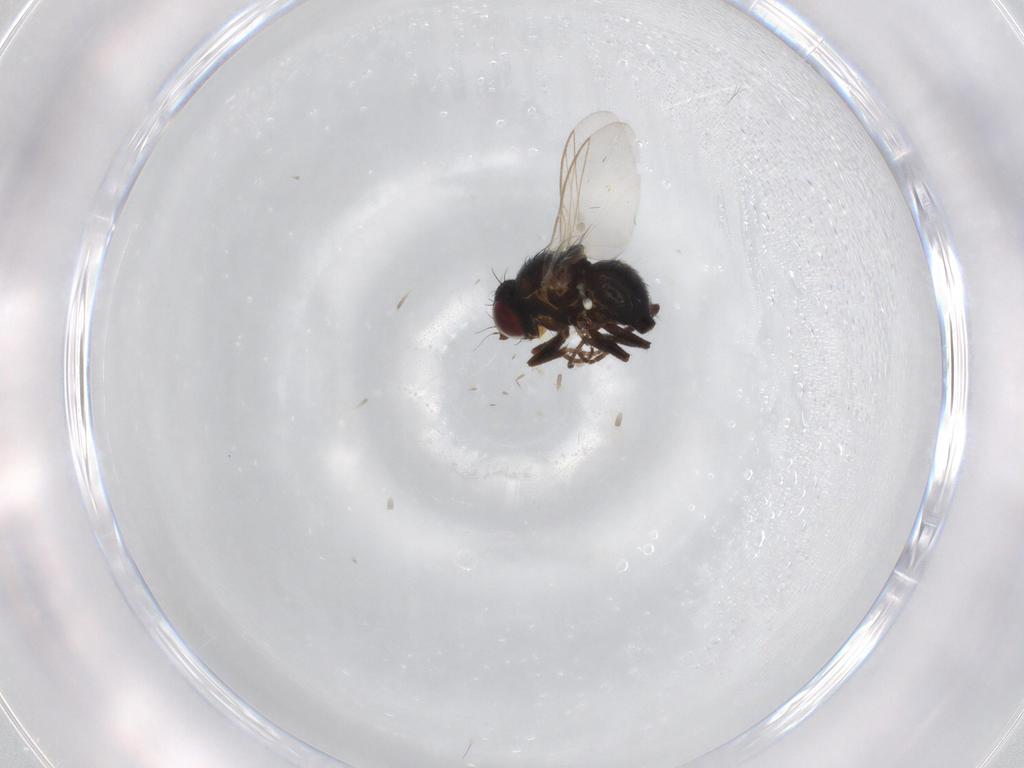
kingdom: Animalia
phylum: Arthropoda
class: Insecta
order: Diptera
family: Agromyzidae
